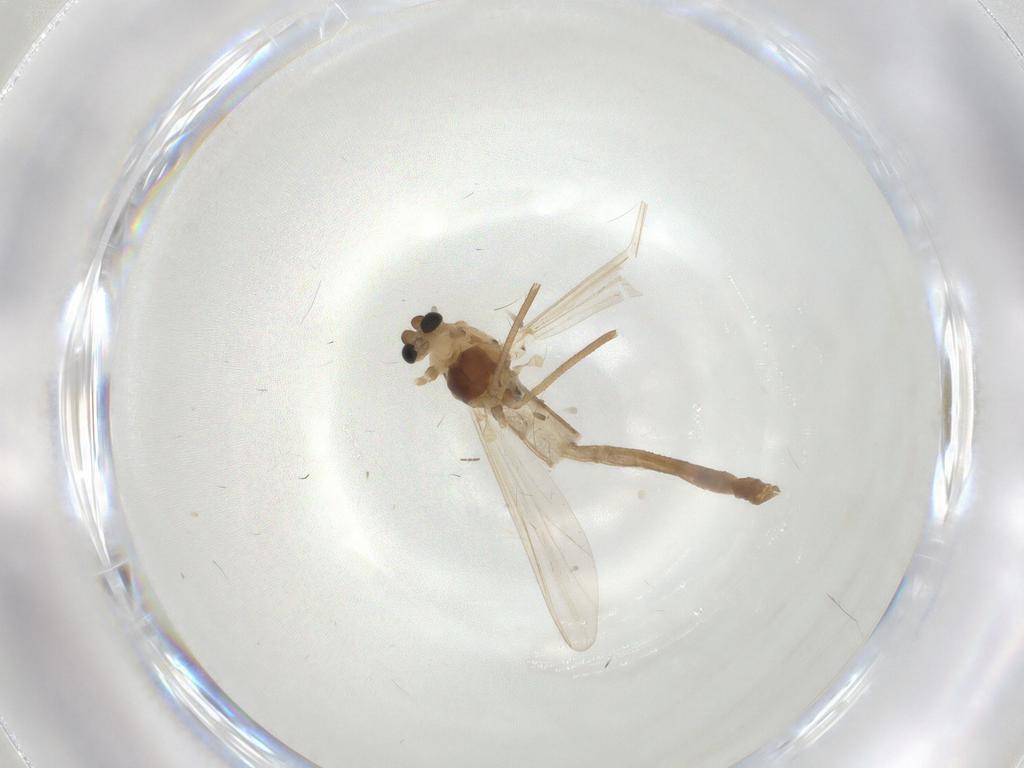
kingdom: Animalia
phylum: Arthropoda
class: Insecta
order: Diptera
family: Chironomidae
